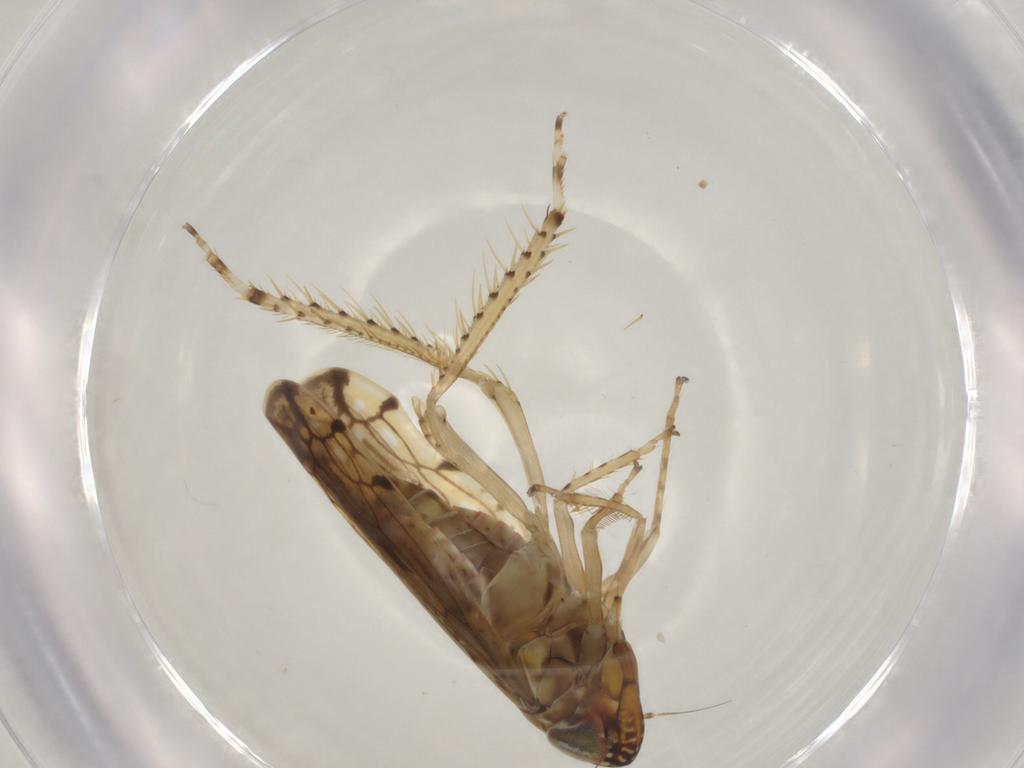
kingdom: Animalia
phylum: Arthropoda
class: Insecta
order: Hemiptera
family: Cicadellidae
